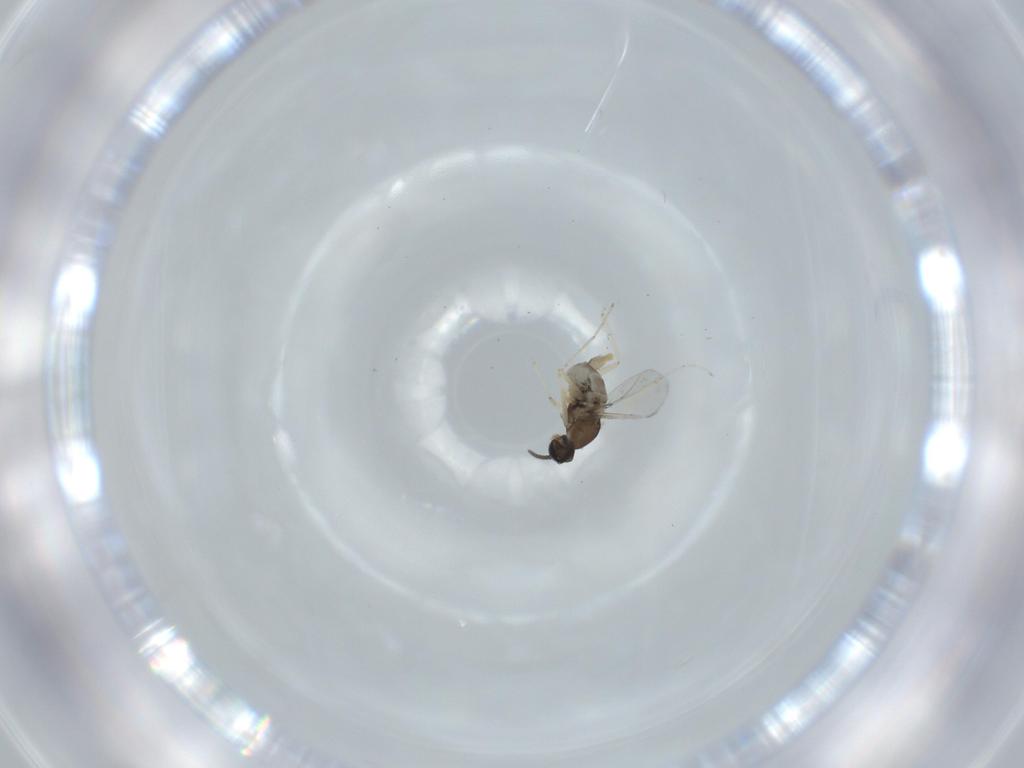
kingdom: Animalia
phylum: Arthropoda
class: Insecta
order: Diptera
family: Cecidomyiidae
